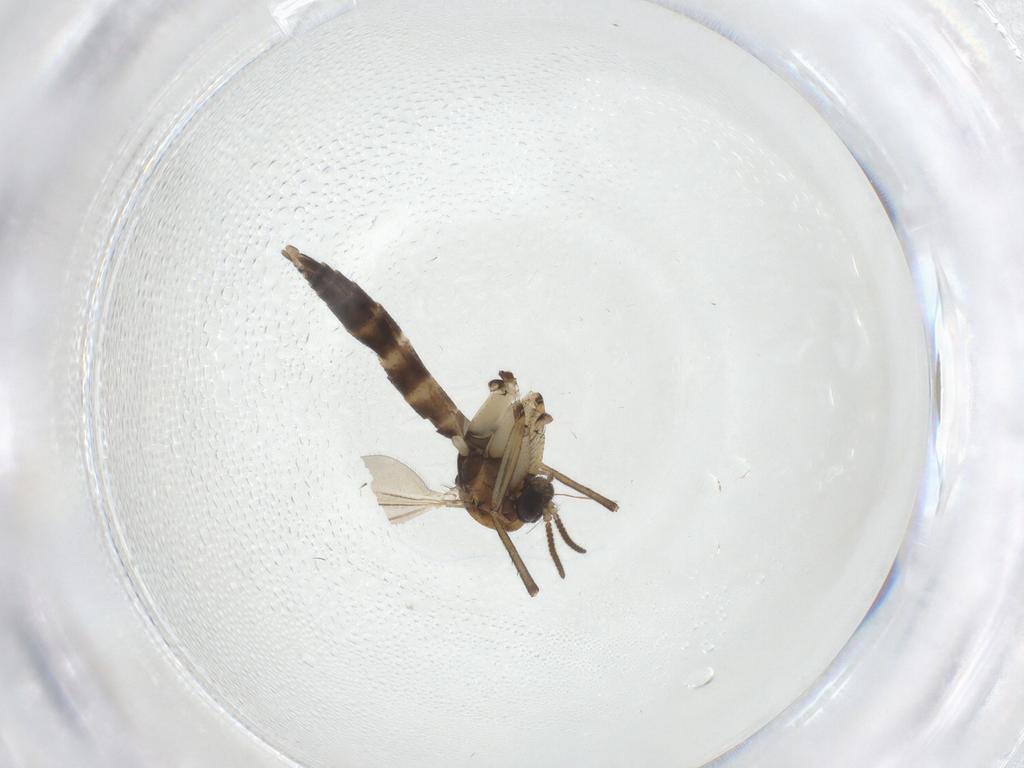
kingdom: Animalia
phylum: Arthropoda
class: Insecta
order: Diptera
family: Mycetophilidae
